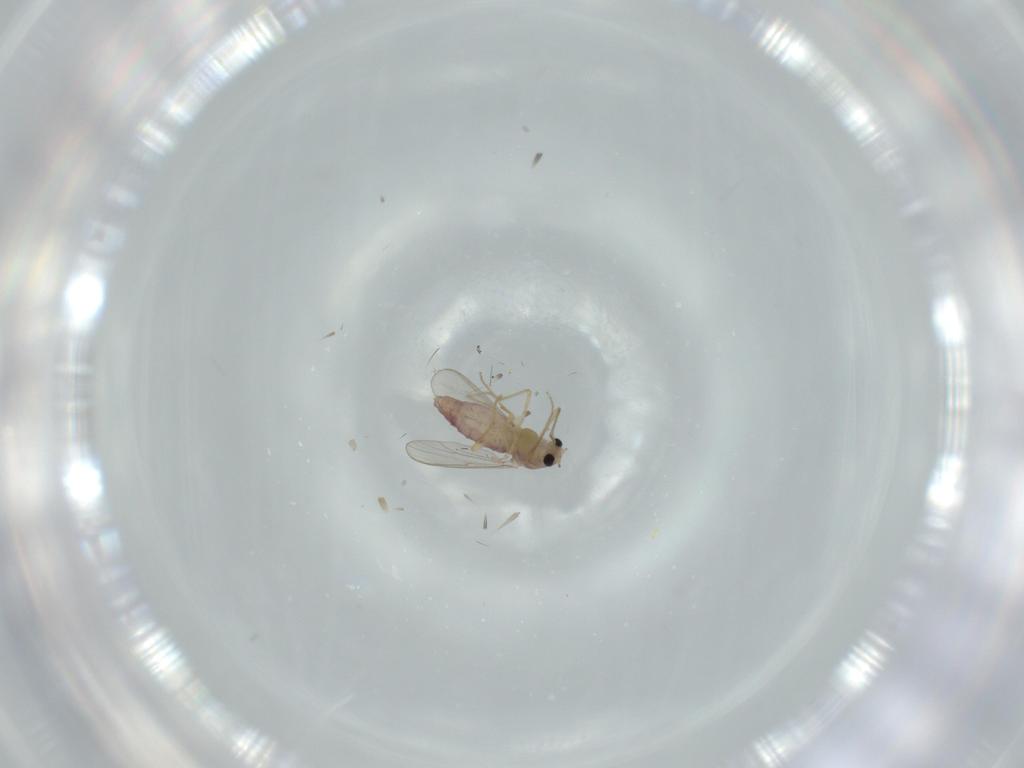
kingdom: Animalia
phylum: Arthropoda
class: Insecta
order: Diptera
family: Chironomidae
